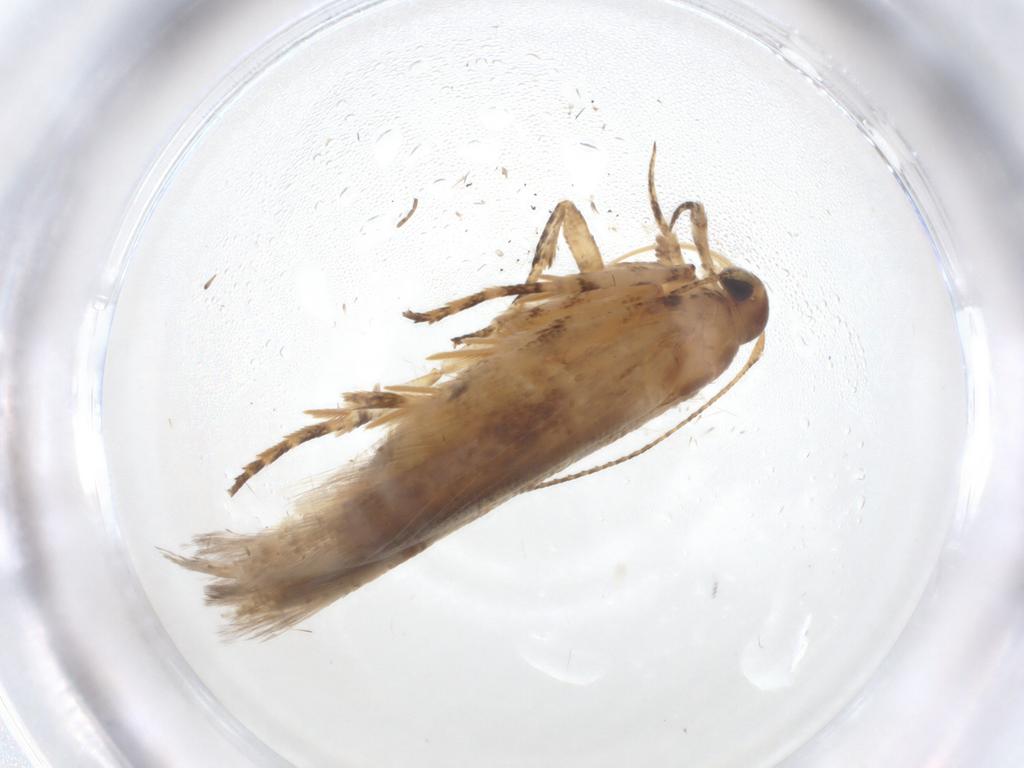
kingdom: Animalia
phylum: Arthropoda
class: Insecta
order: Lepidoptera
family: Gelechiidae
